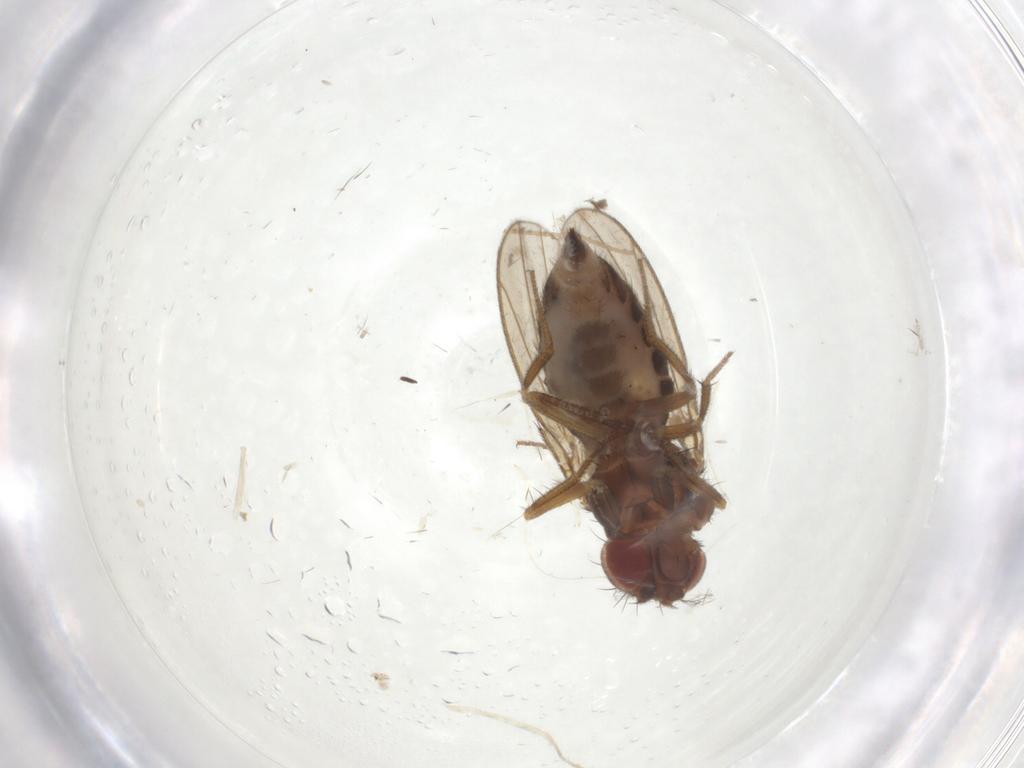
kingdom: Animalia
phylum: Arthropoda
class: Insecta
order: Diptera
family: Drosophilidae
